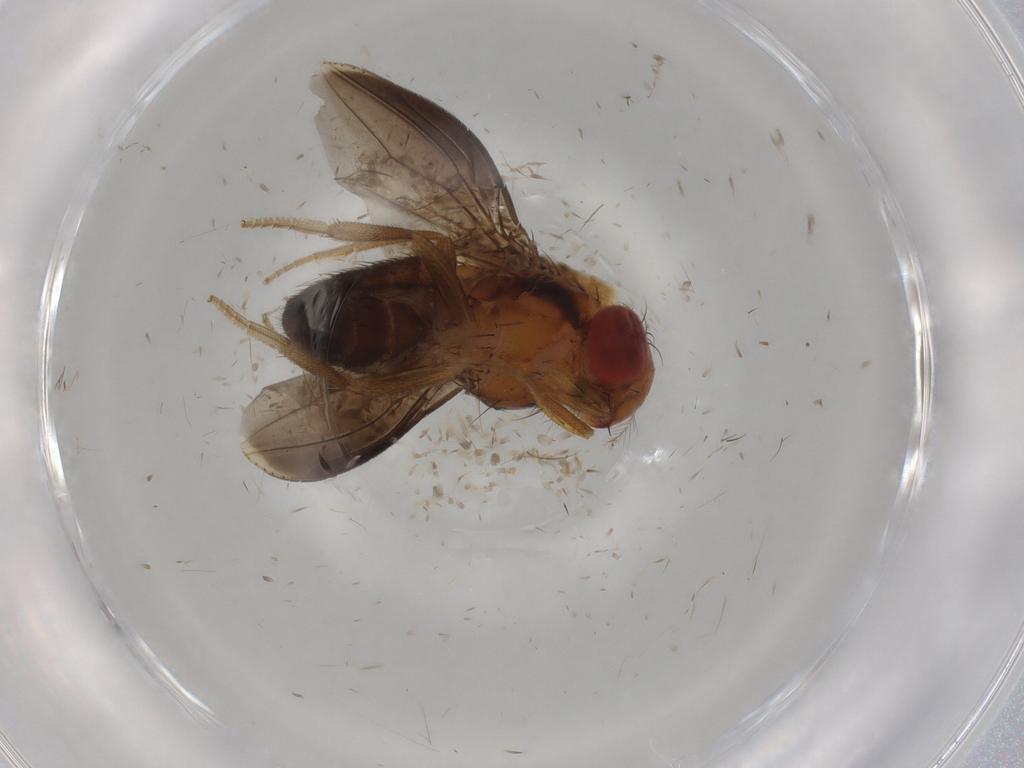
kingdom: Animalia
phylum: Arthropoda
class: Insecta
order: Diptera
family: Drosophilidae
